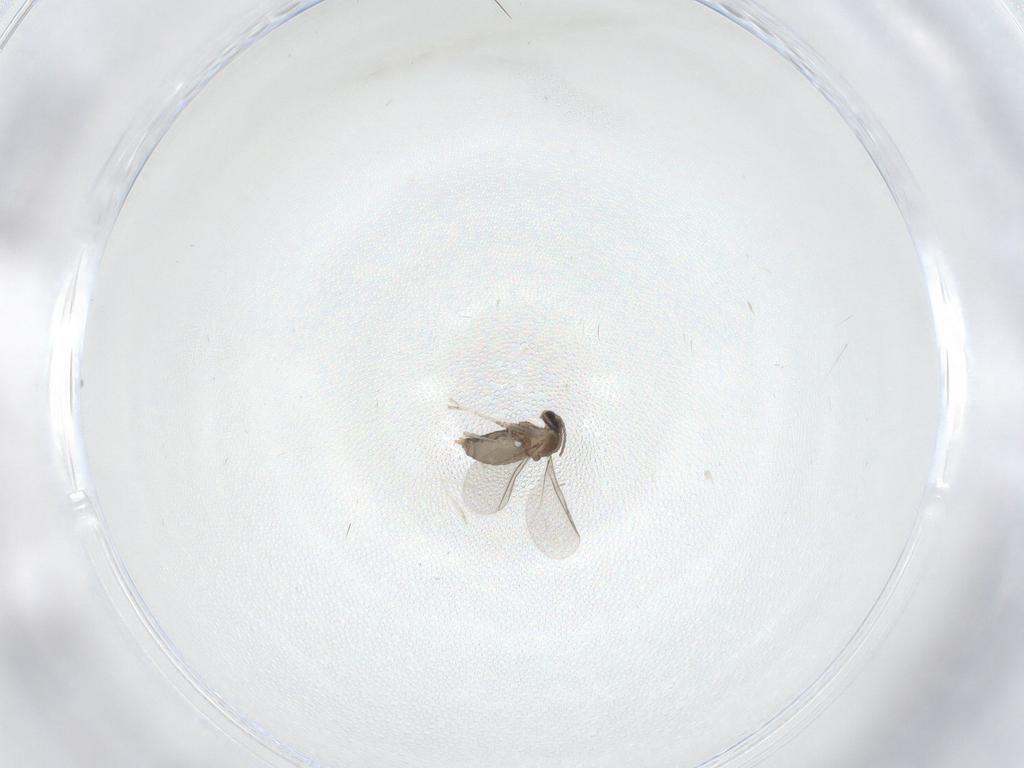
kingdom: Animalia
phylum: Arthropoda
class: Insecta
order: Diptera
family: Cecidomyiidae
